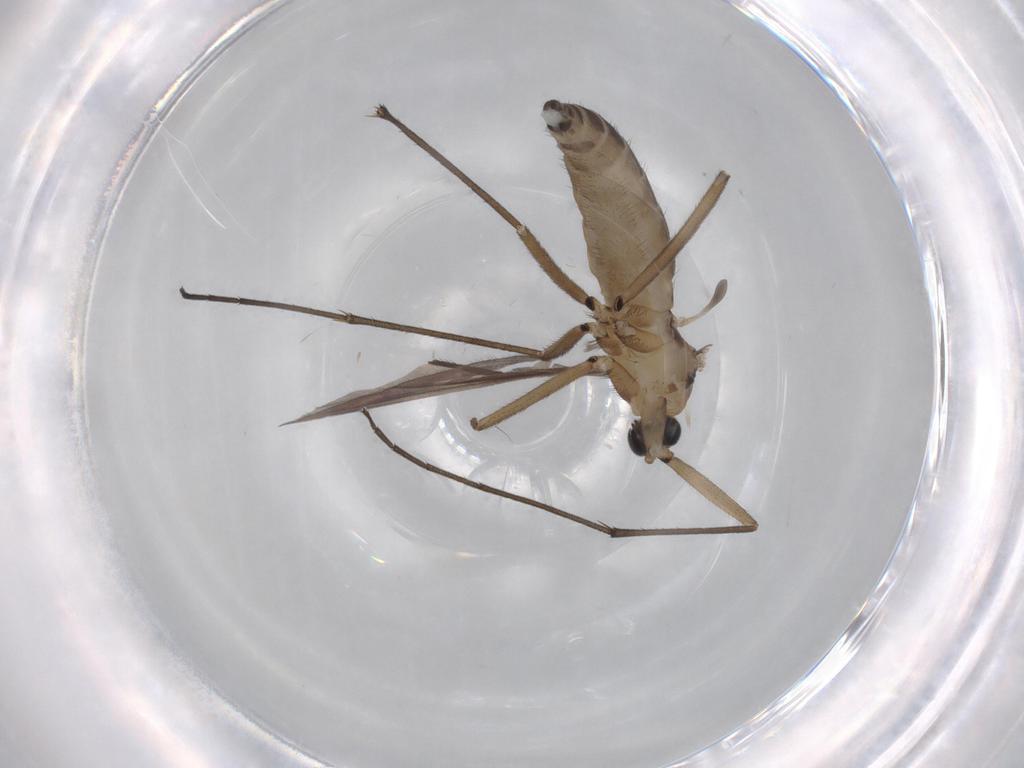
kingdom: Animalia
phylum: Arthropoda
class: Insecta
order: Diptera
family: Sciaridae
